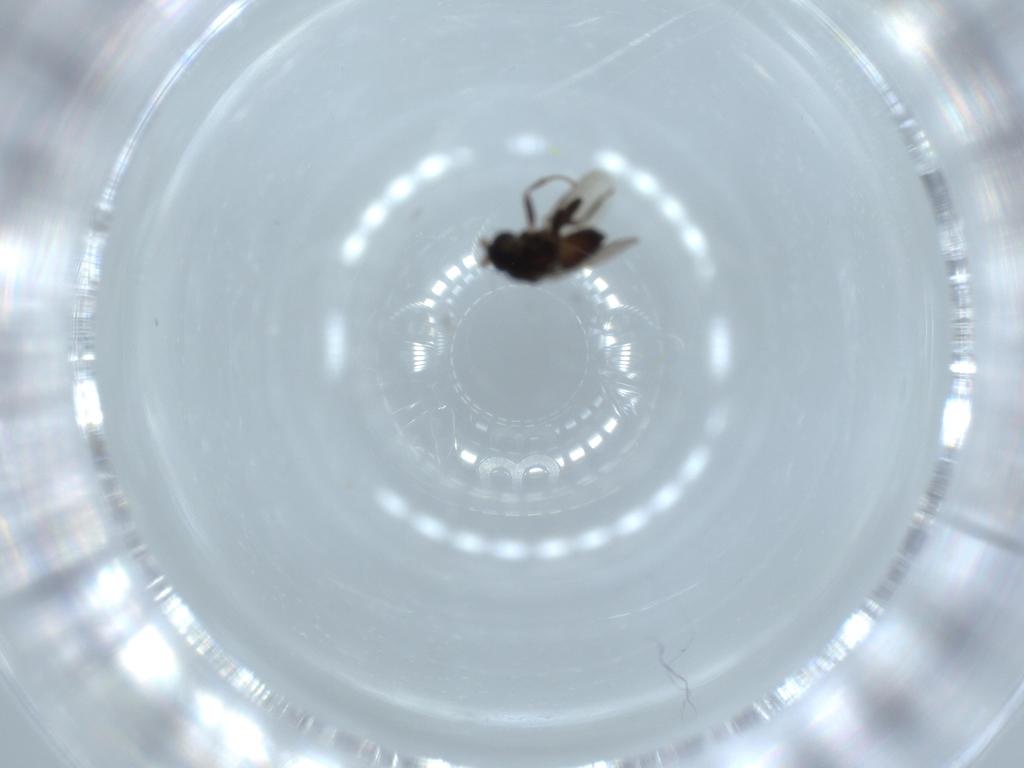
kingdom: Animalia
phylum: Arthropoda
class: Insecta
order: Diptera
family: Sphaeroceridae
